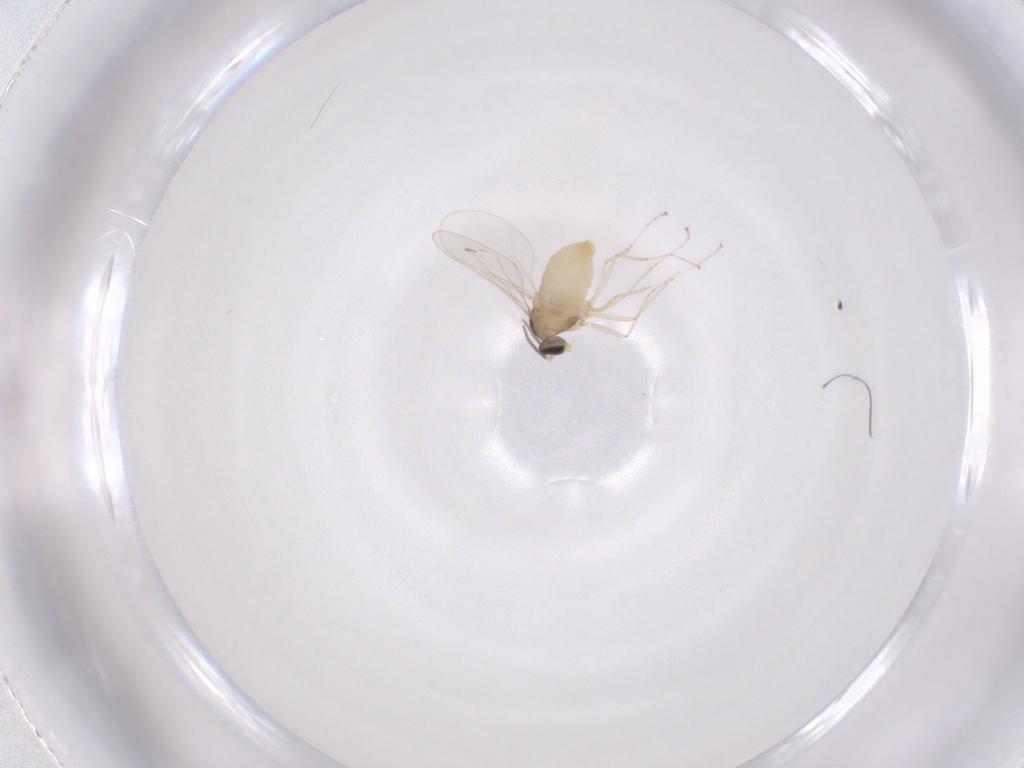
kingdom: Animalia
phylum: Arthropoda
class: Insecta
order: Diptera
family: Cecidomyiidae
